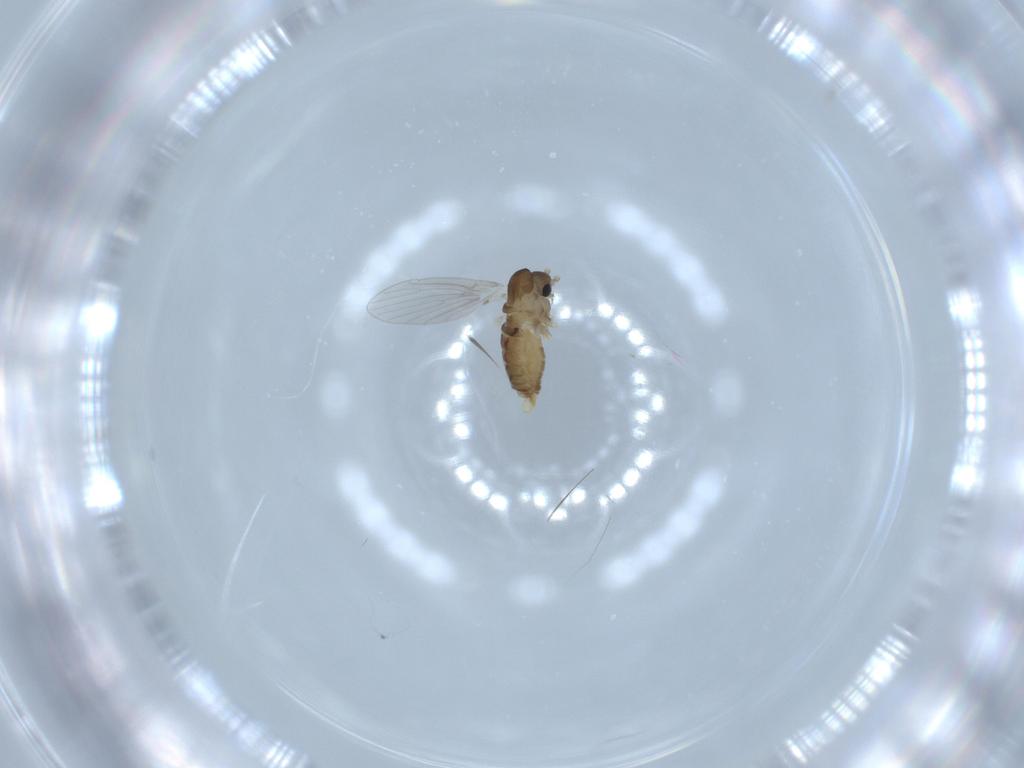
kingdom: Animalia
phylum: Arthropoda
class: Insecta
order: Diptera
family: Psychodidae
